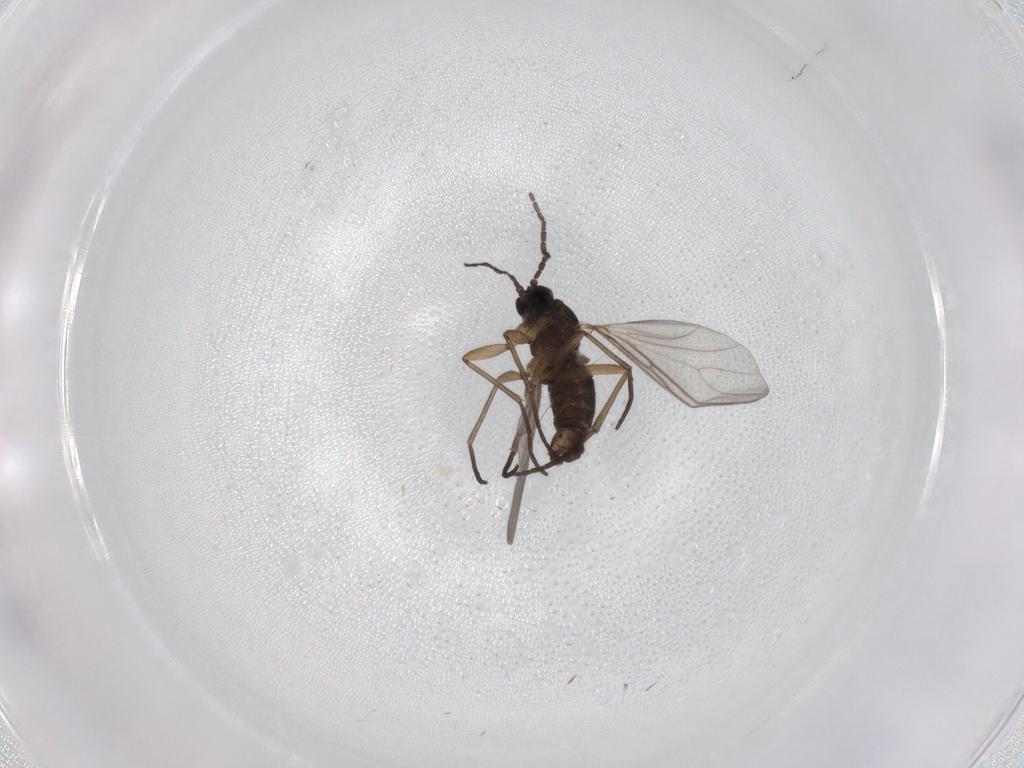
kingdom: Animalia
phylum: Arthropoda
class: Insecta
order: Diptera
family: Sciaridae
